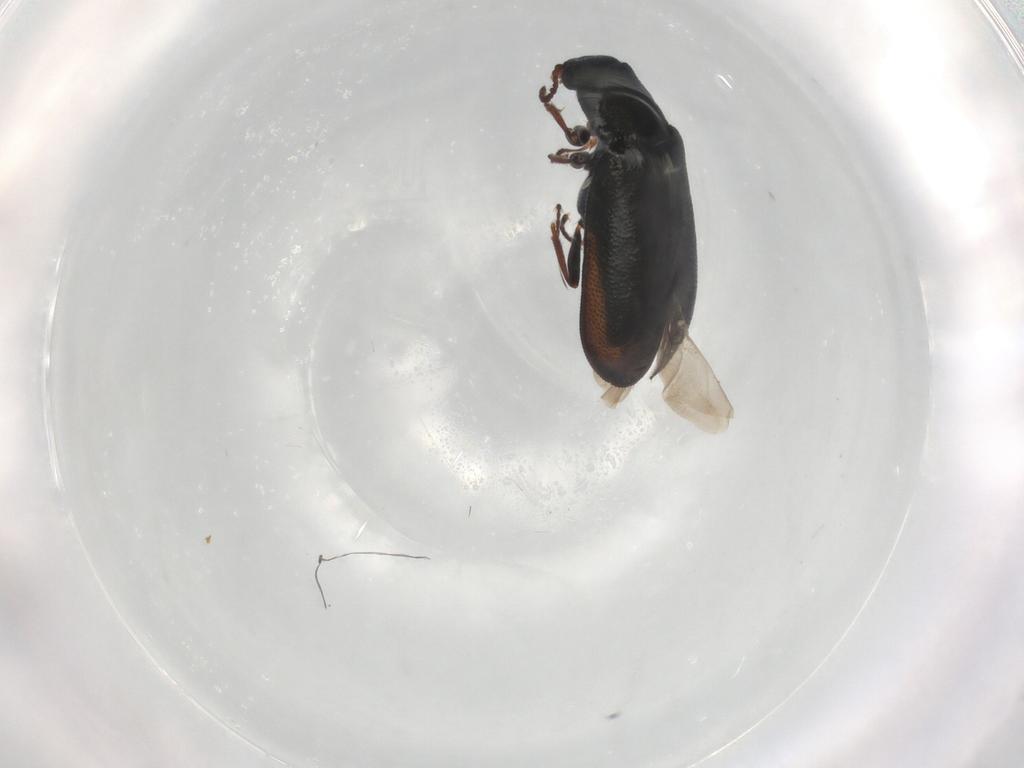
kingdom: Animalia
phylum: Arthropoda
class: Insecta
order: Coleoptera
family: Melyridae
